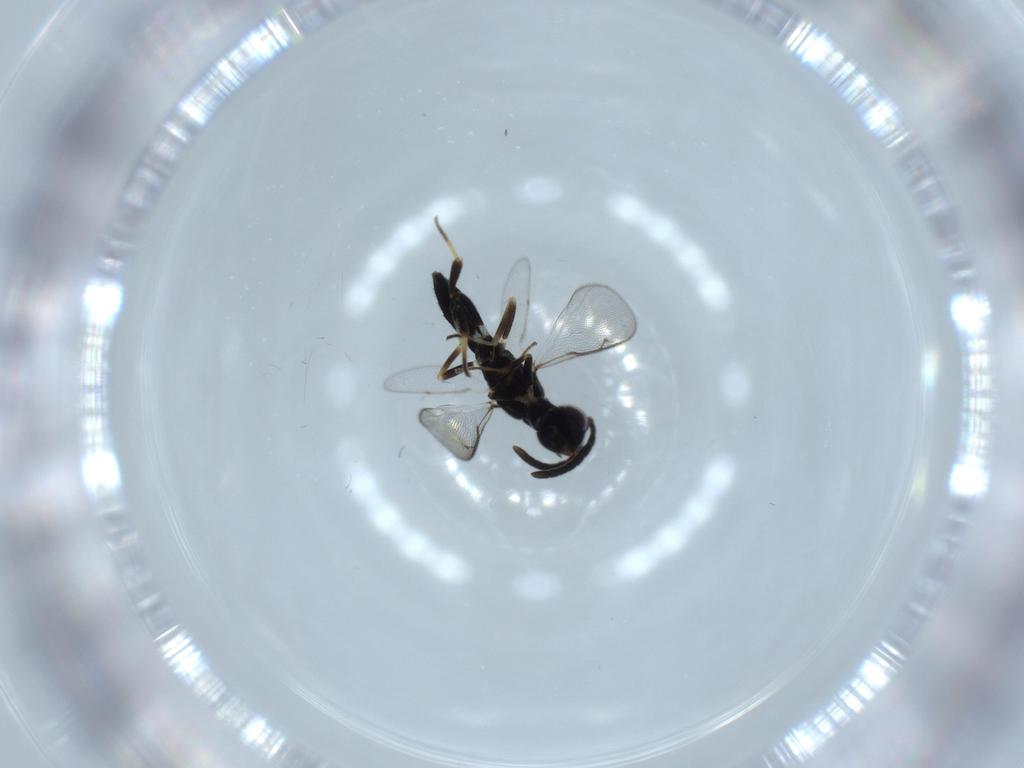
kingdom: Animalia
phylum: Arthropoda
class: Insecta
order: Hymenoptera
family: Eupelmidae
